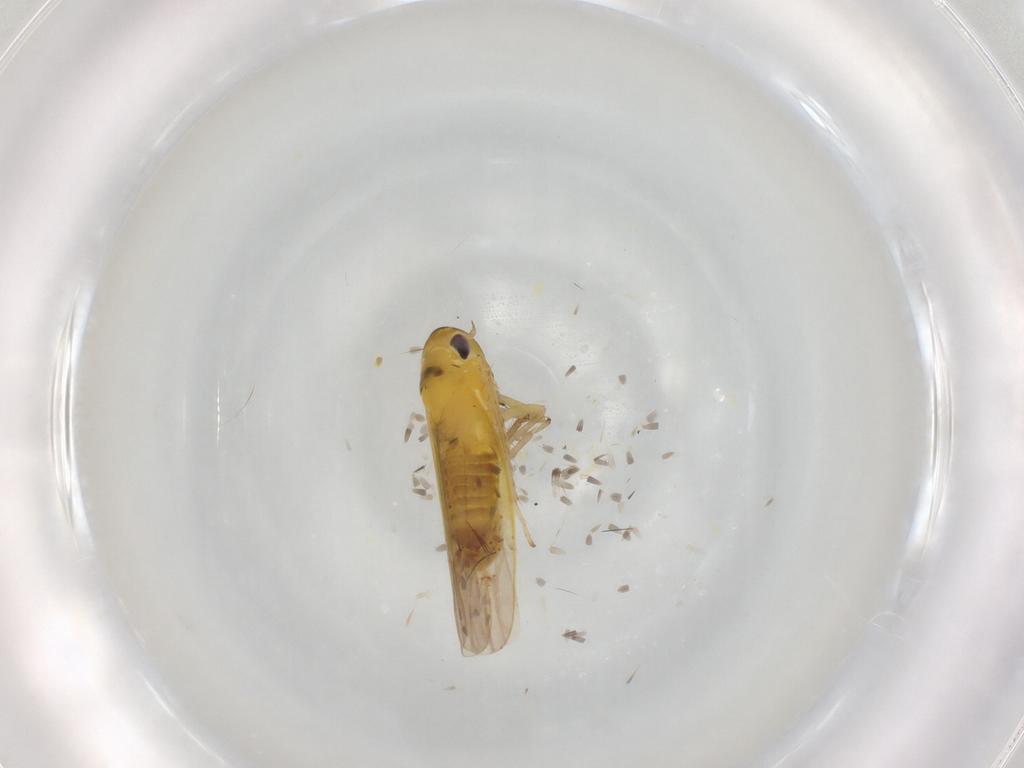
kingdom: Animalia
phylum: Arthropoda
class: Insecta
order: Hemiptera
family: Cicadellidae
